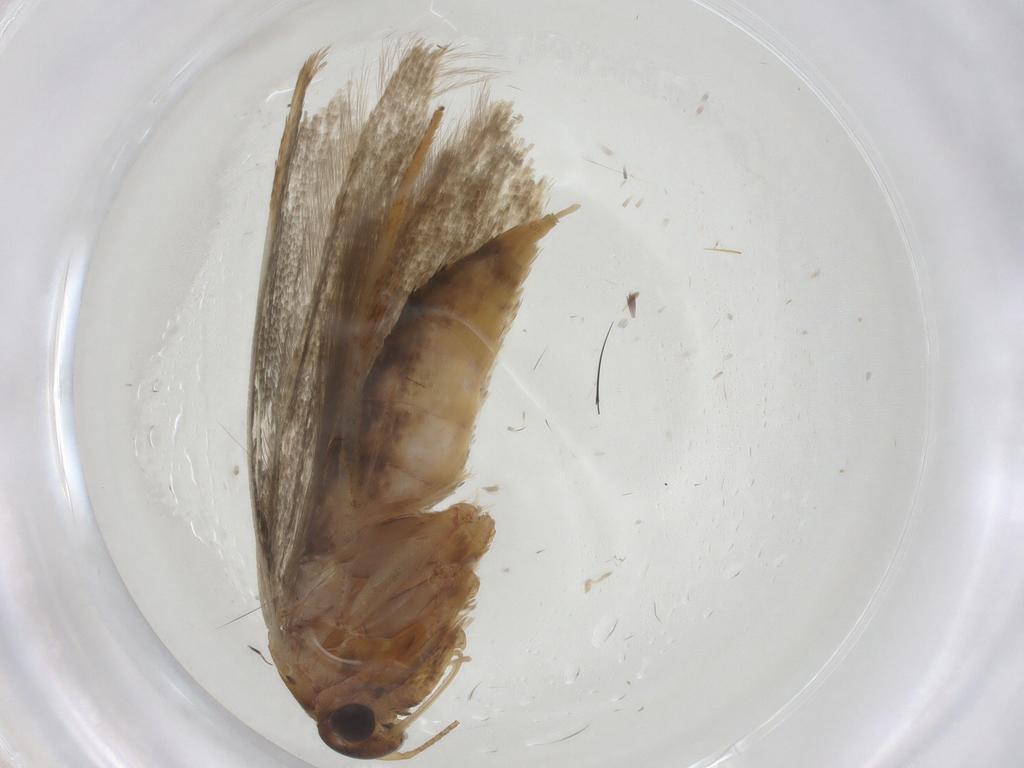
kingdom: Animalia
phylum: Arthropoda
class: Insecta
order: Lepidoptera
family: Blastobasidae
